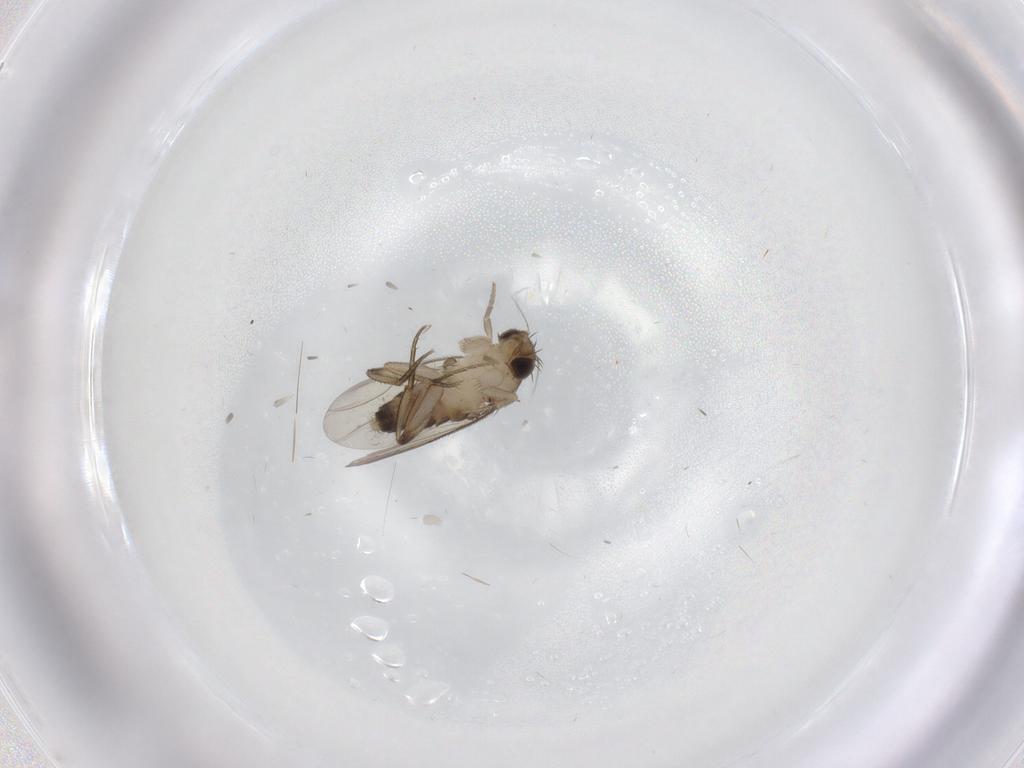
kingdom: Animalia
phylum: Arthropoda
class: Insecta
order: Diptera
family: Phoridae
